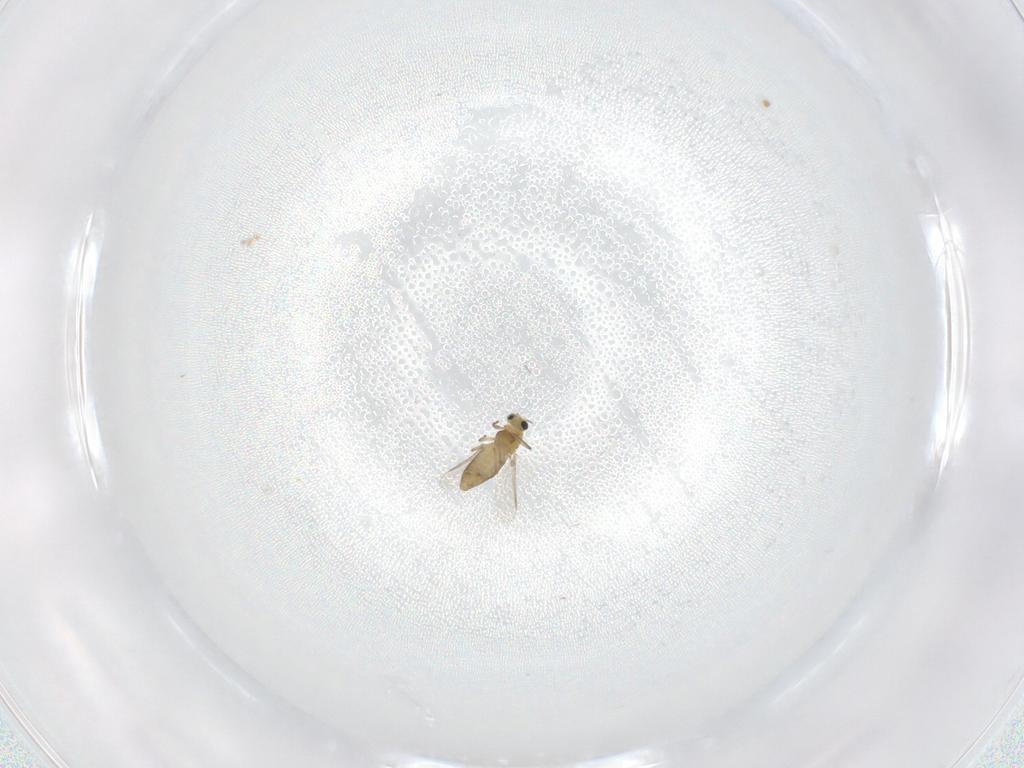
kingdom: Animalia
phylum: Arthropoda
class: Insecta
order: Diptera
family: Chironomidae
